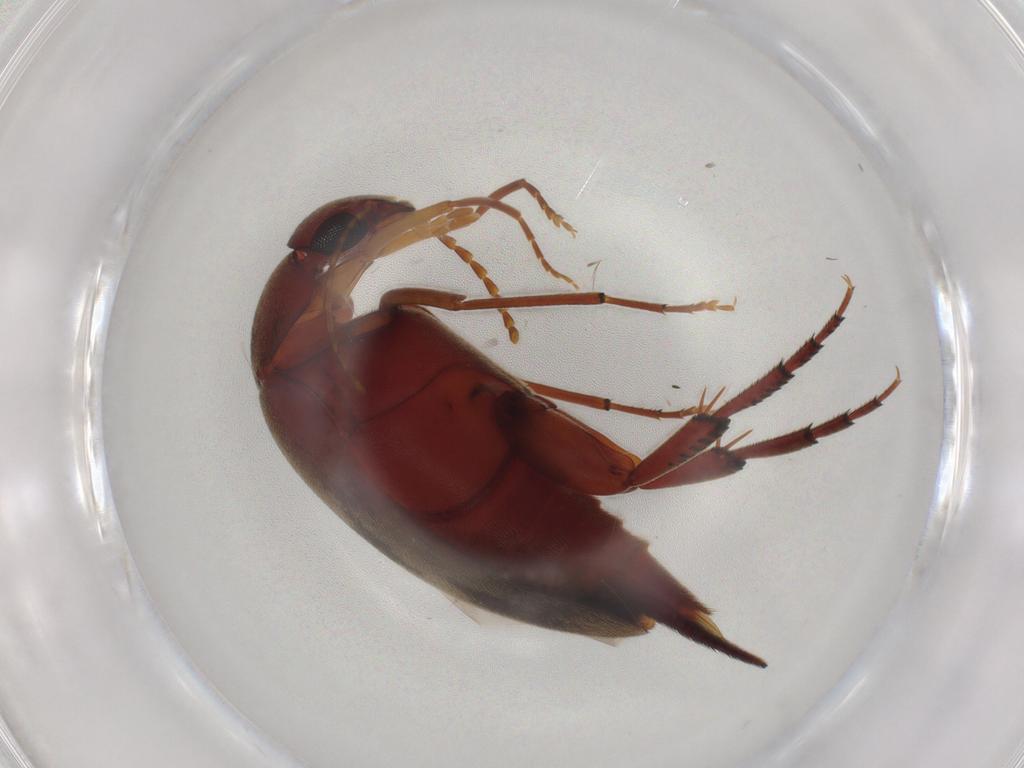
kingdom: Animalia
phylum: Arthropoda
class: Insecta
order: Coleoptera
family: Mordellidae
